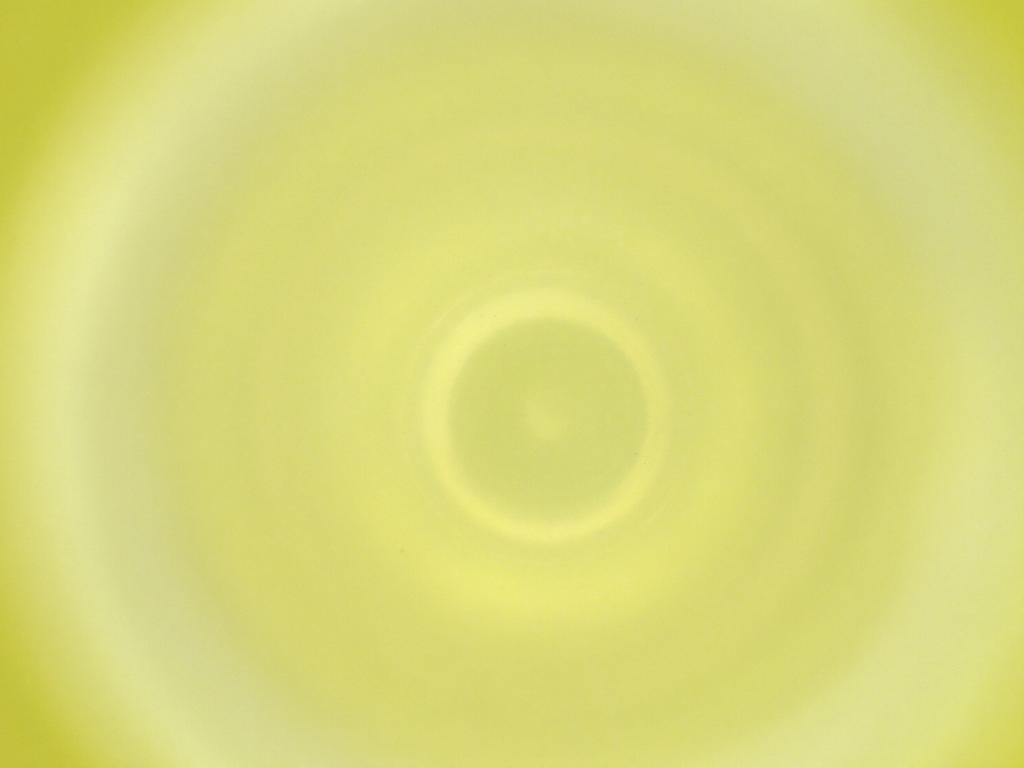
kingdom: Animalia
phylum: Arthropoda
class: Insecta
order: Diptera
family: Cecidomyiidae
